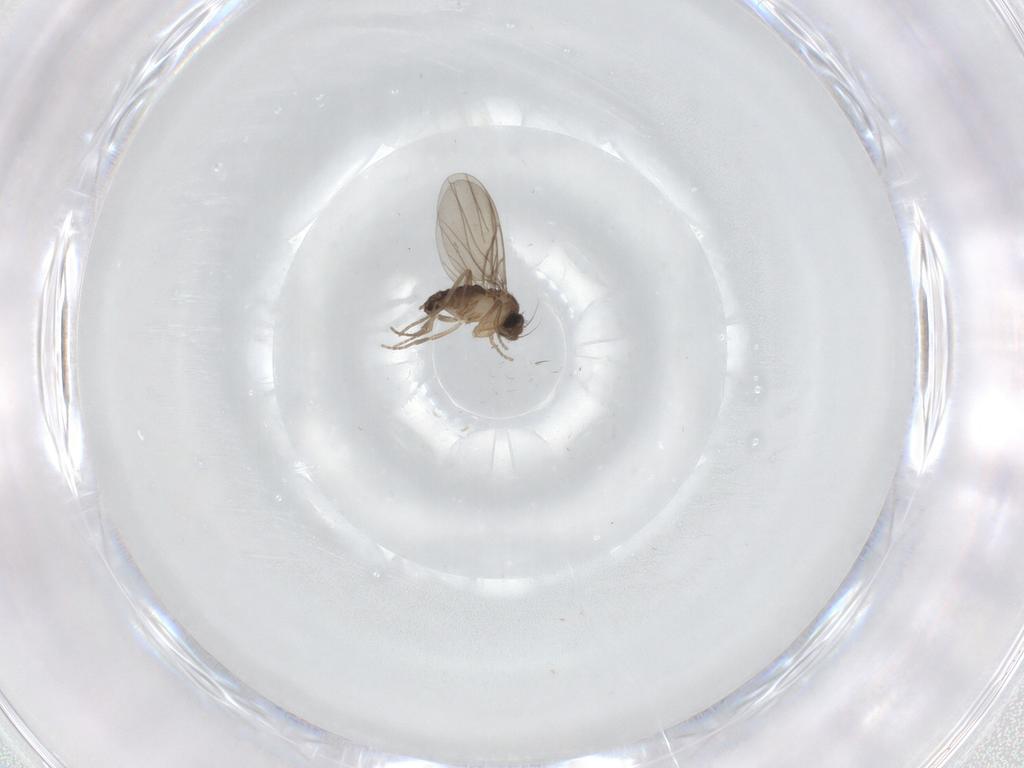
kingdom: Animalia
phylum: Arthropoda
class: Insecta
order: Diptera
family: Phoridae
